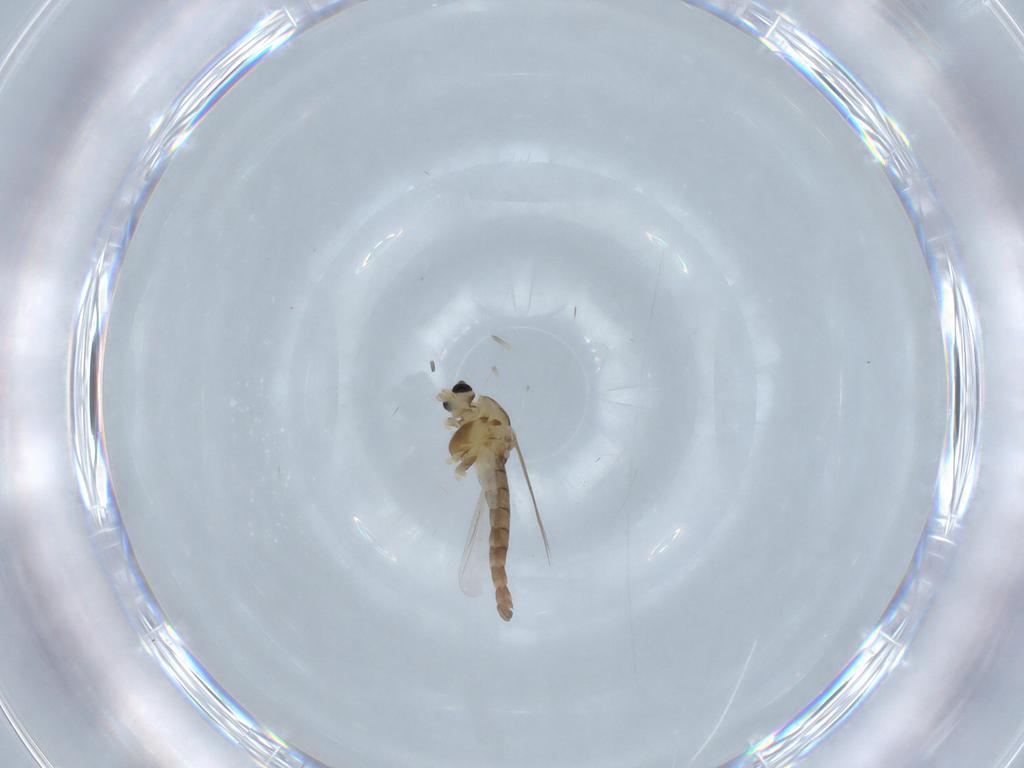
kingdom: Animalia
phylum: Arthropoda
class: Insecta
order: Diptera
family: Chironomidae
